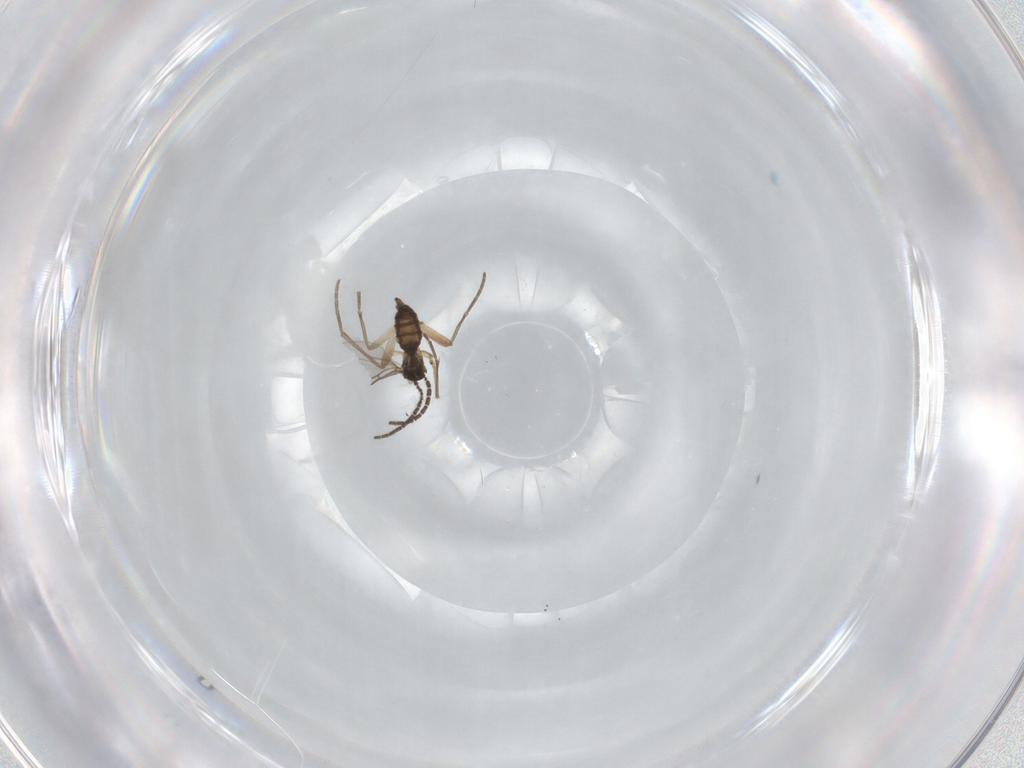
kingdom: Animalia
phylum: Arthropoda
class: Insecta
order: Diptera
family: Sciaridae
